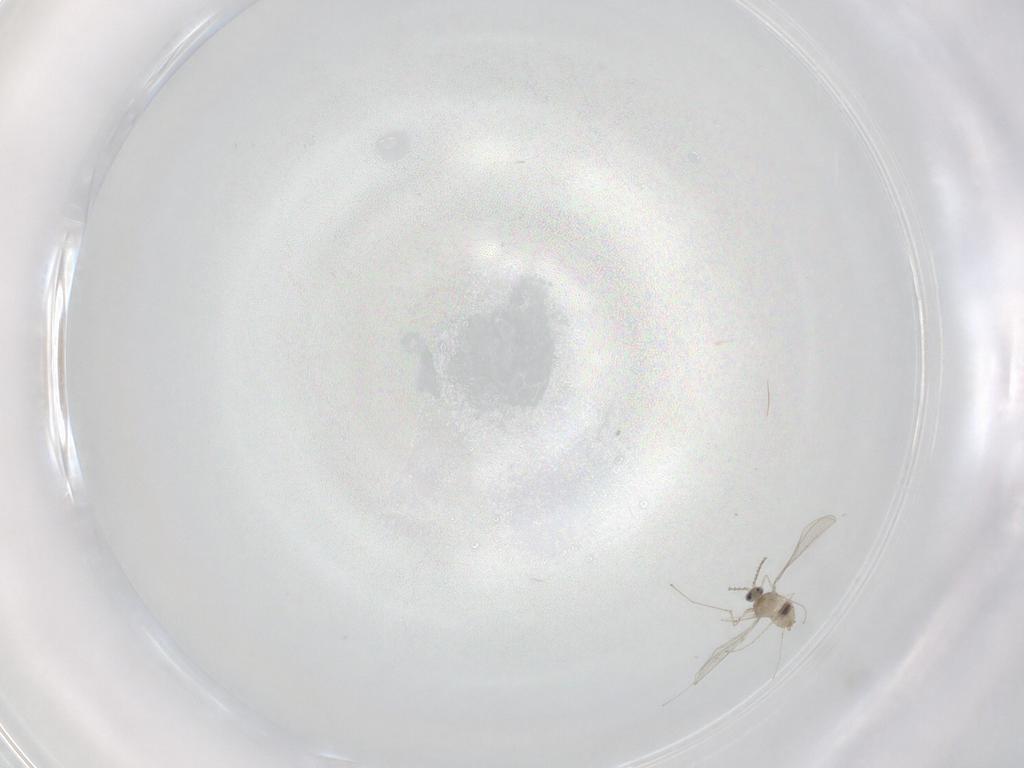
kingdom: Animalia
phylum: Arthropoda
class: Insecta
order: Diptera
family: Cecidomyiidae
